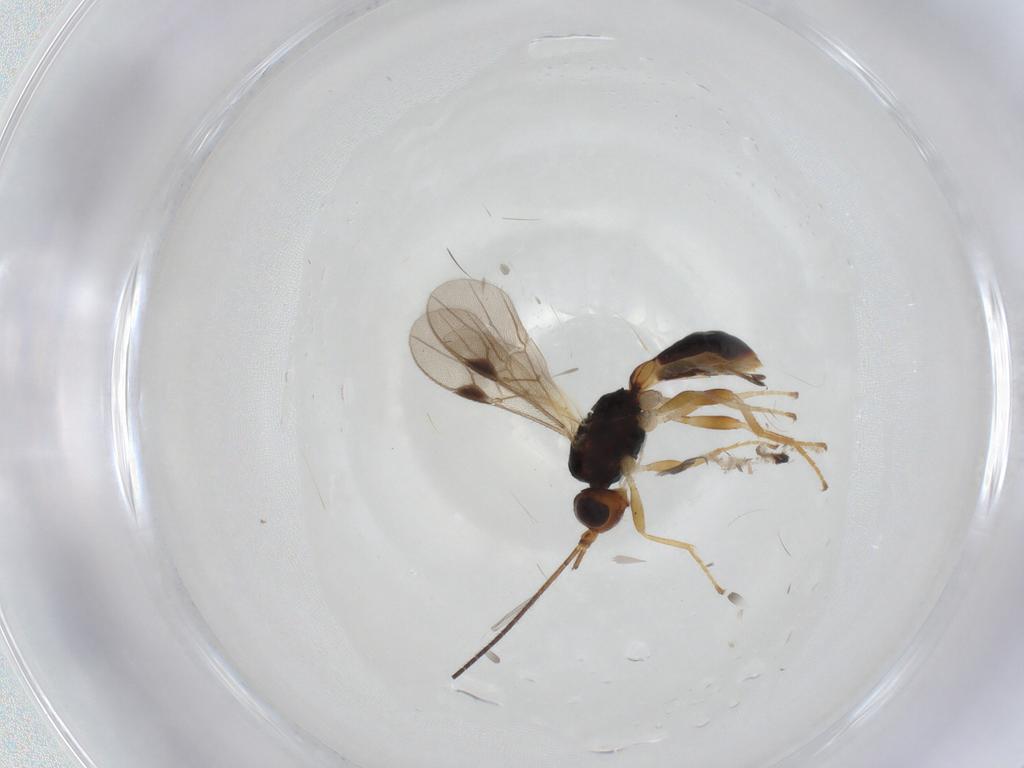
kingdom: Animalia
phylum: Arthropoda
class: Insecta
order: Hymenoptera
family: Braconidae
